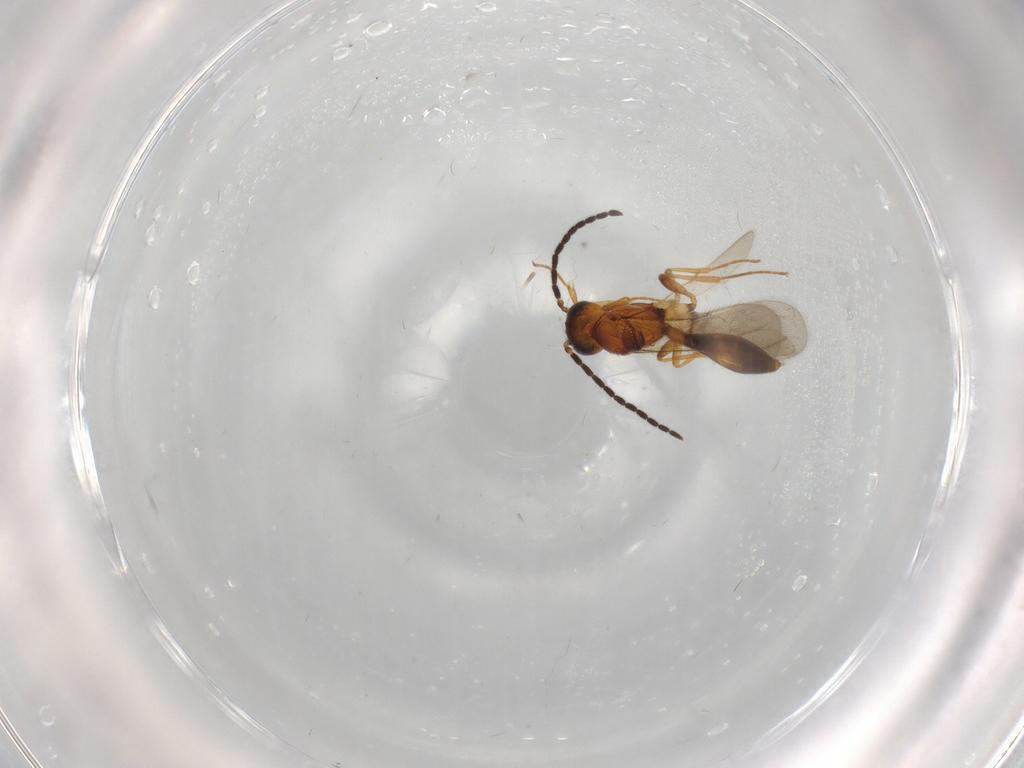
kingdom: Animalia
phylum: Arthropoda
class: Insecta
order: Hymenoptera
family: Scelionidae
